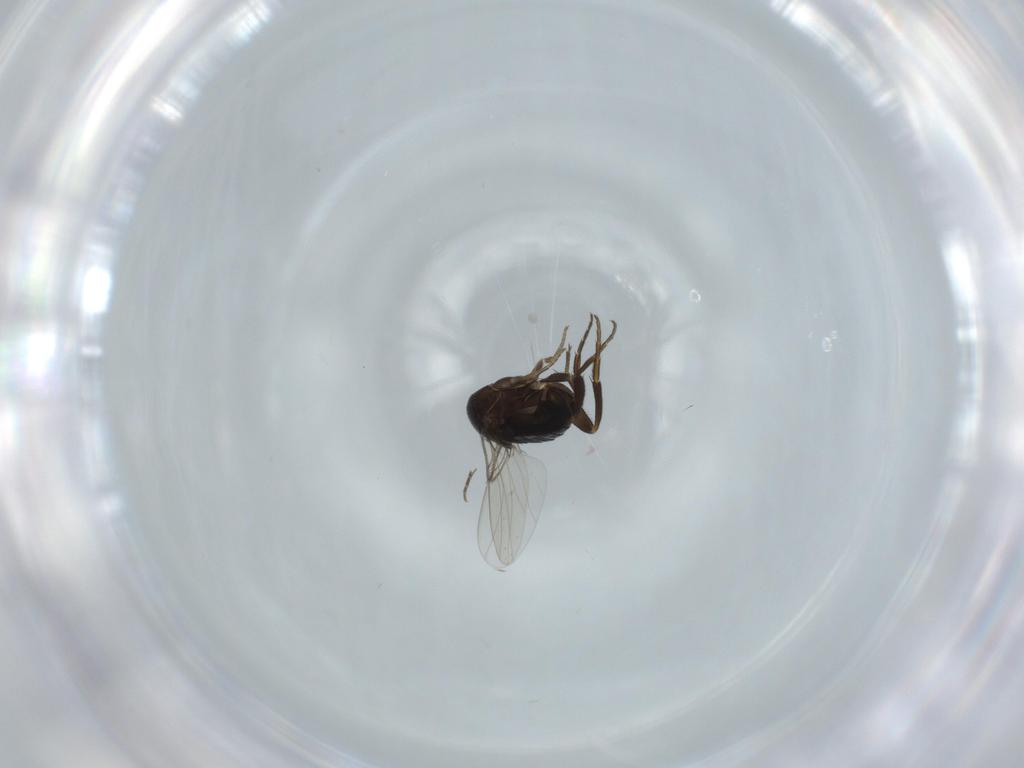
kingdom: Animalia
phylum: Arthropoda
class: Insecta
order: Diptera
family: Phoridae
